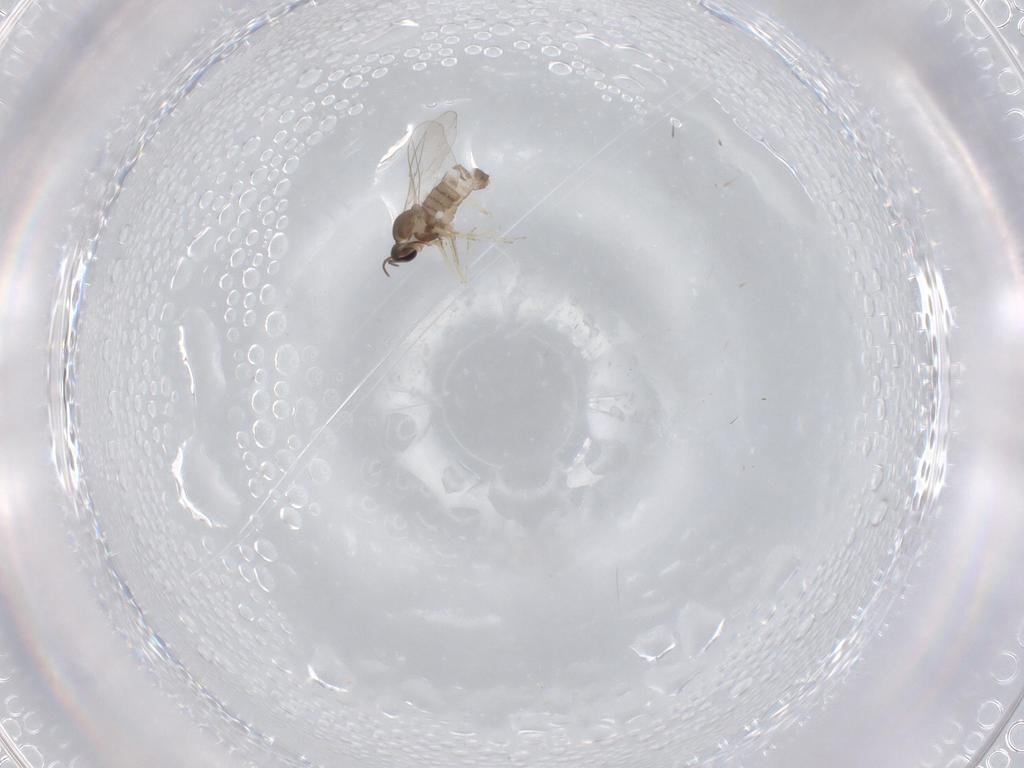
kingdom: Animalia
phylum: Arthropoda
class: Insecta
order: Diptera
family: Cecidomyiidae
